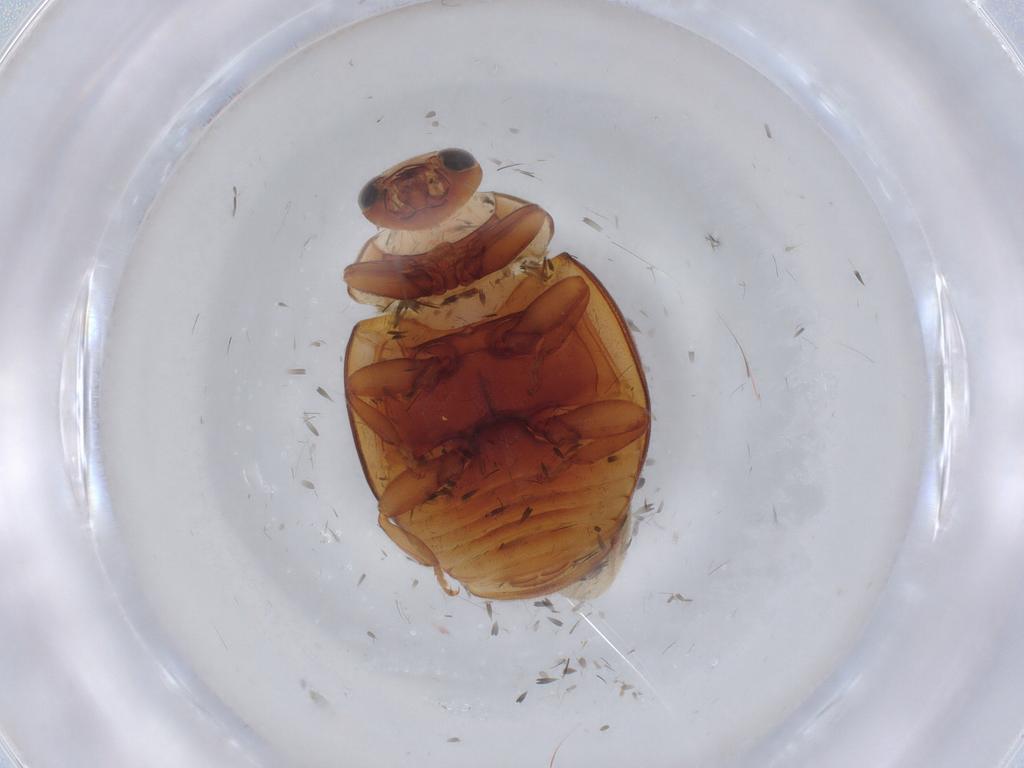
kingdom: Animalia
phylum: Arthropoda
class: Insecta
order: Coleoptera
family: Coccinellidae
